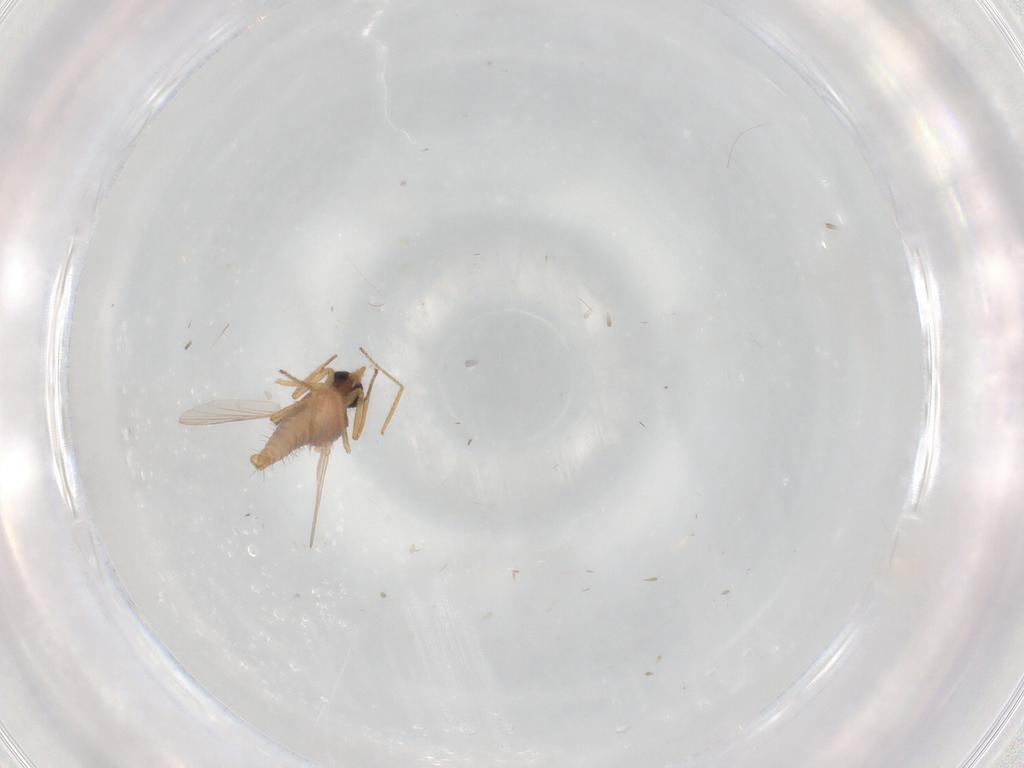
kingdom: Animalia
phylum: Arthropoda
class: Insecta
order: Diptera
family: Ceratopogonidae
